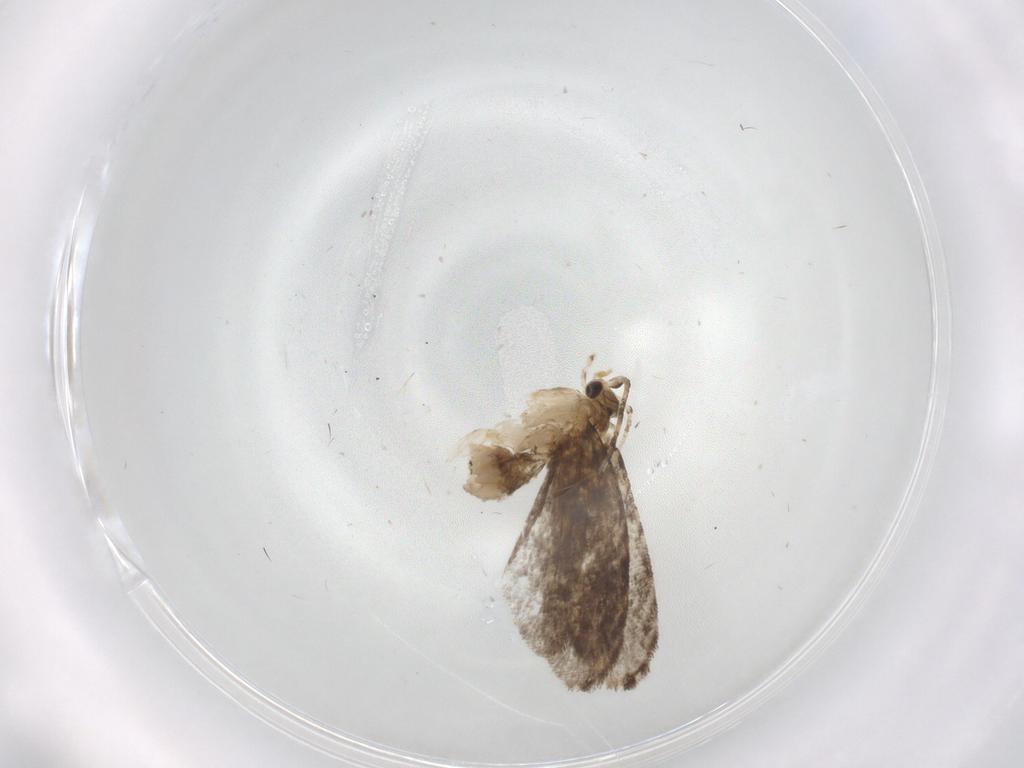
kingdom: Animalia
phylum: Arthropoda
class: Insecta
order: Lepidoptera
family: Tineidae
